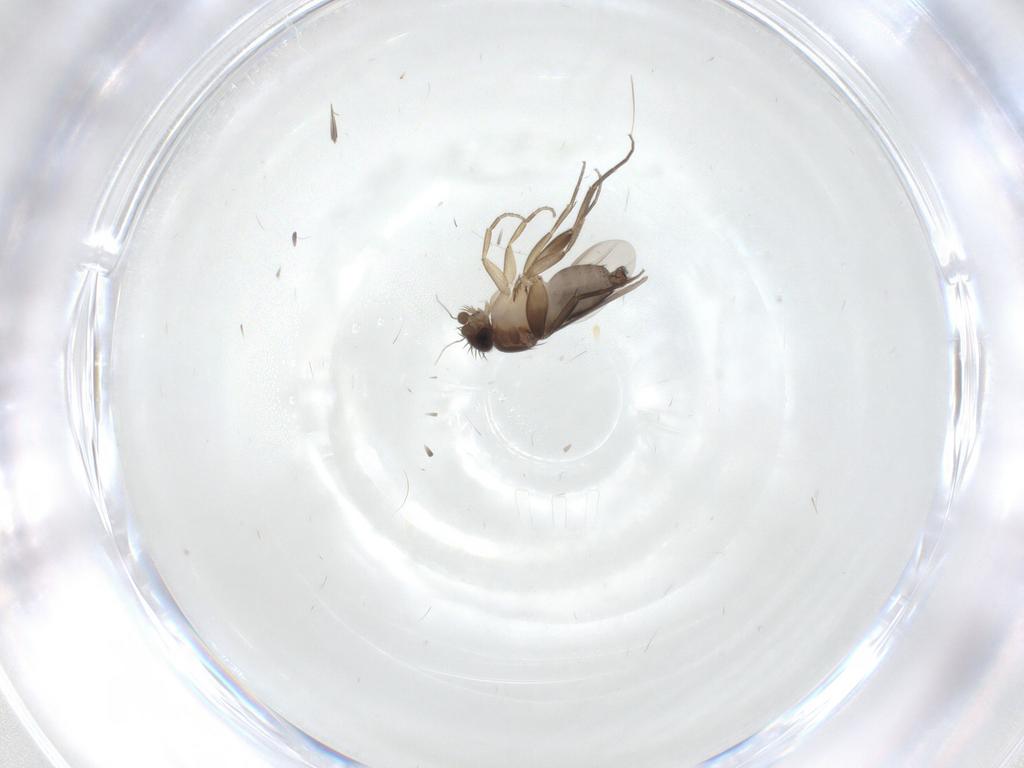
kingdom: Animalia
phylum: Arthropoda
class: Insecta
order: Diptera
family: Phoridae
